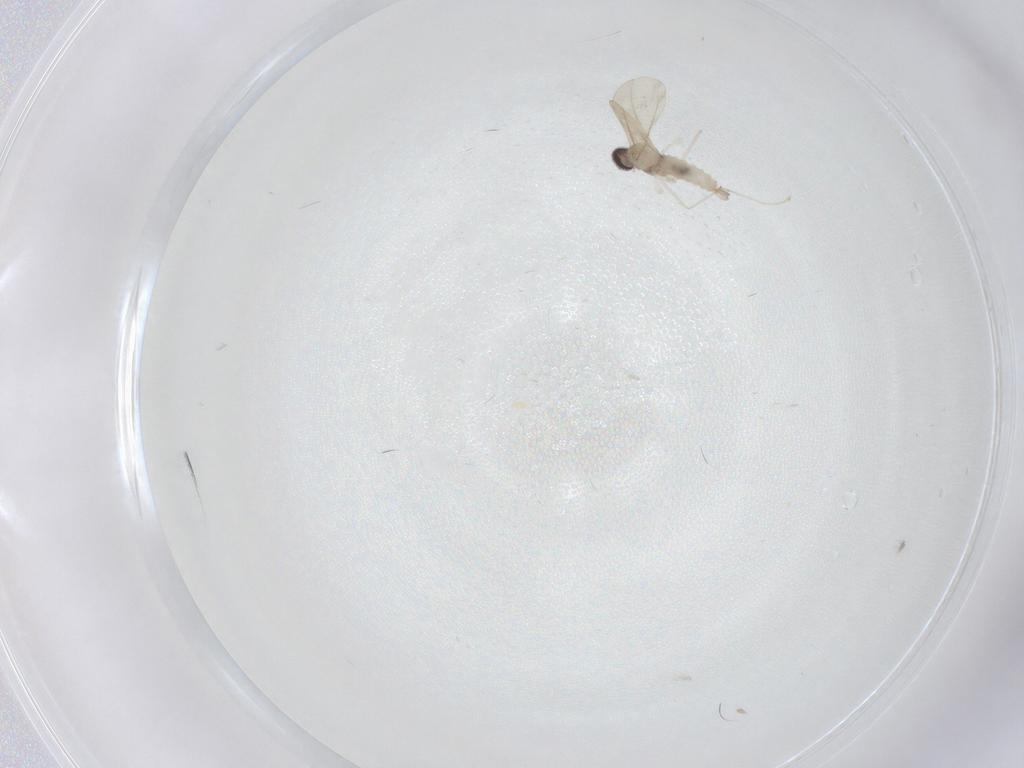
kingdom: Animalia
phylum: Arthropoda
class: Insecta
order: Diptera
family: Cecidomyiidae
